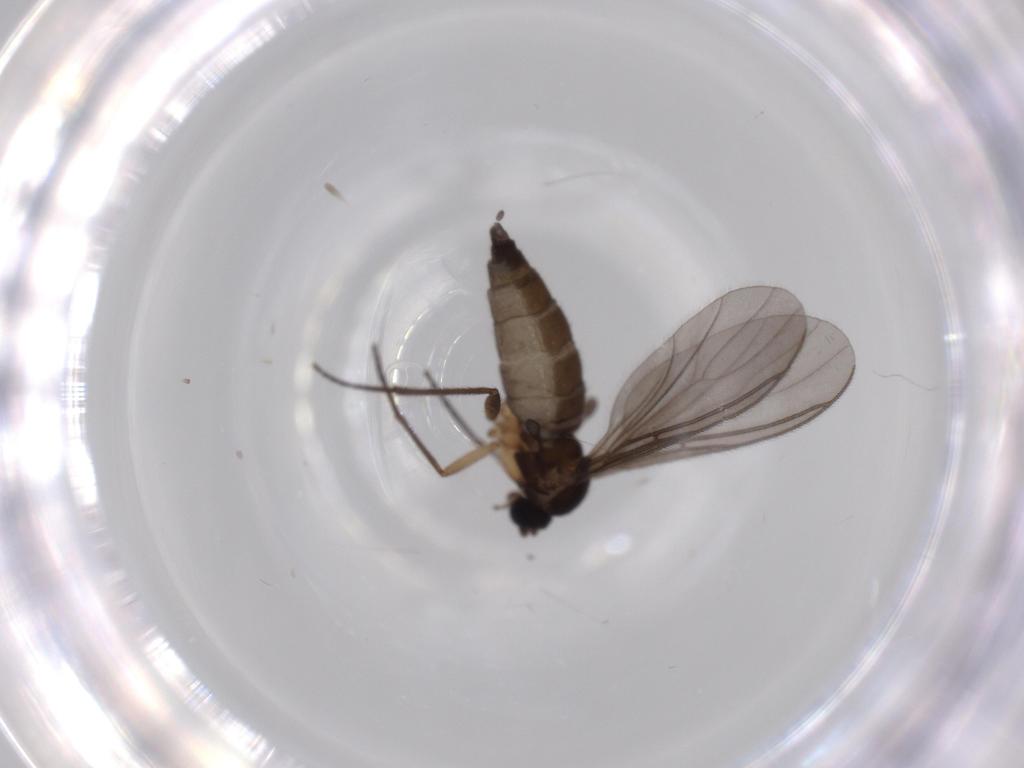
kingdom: Animalia
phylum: Arthropoda
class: Insecta
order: Diptera
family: Sciaridae
